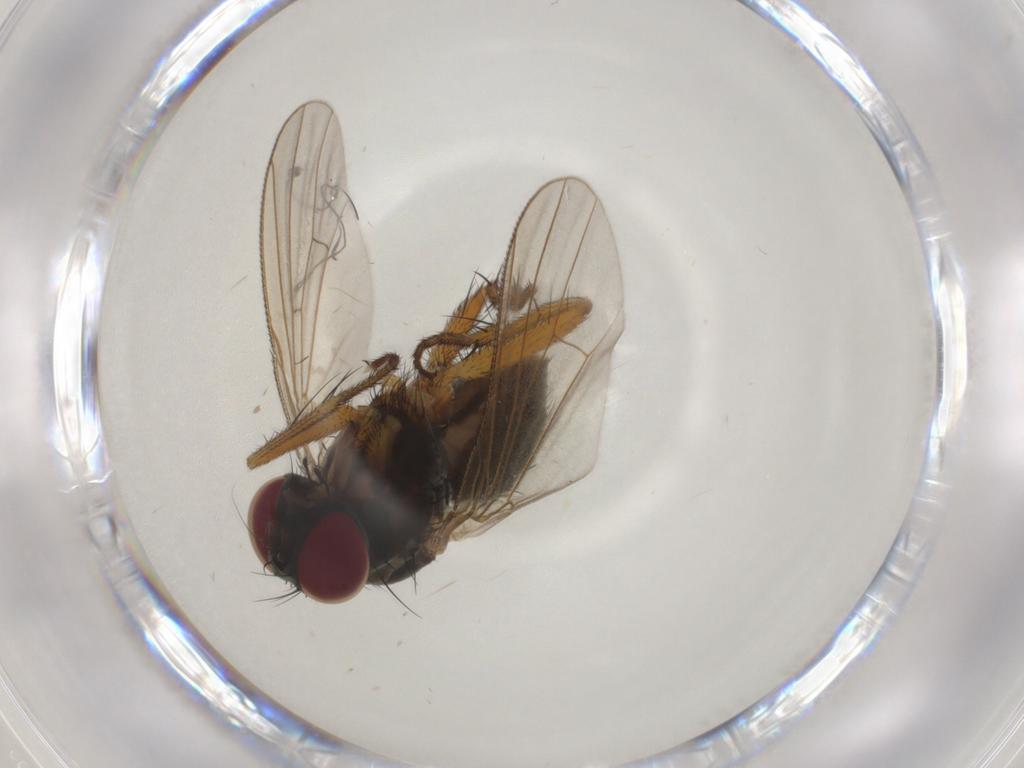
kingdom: Animalia
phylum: Arthropoda
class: Insecta
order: Diptera
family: Muscidae
